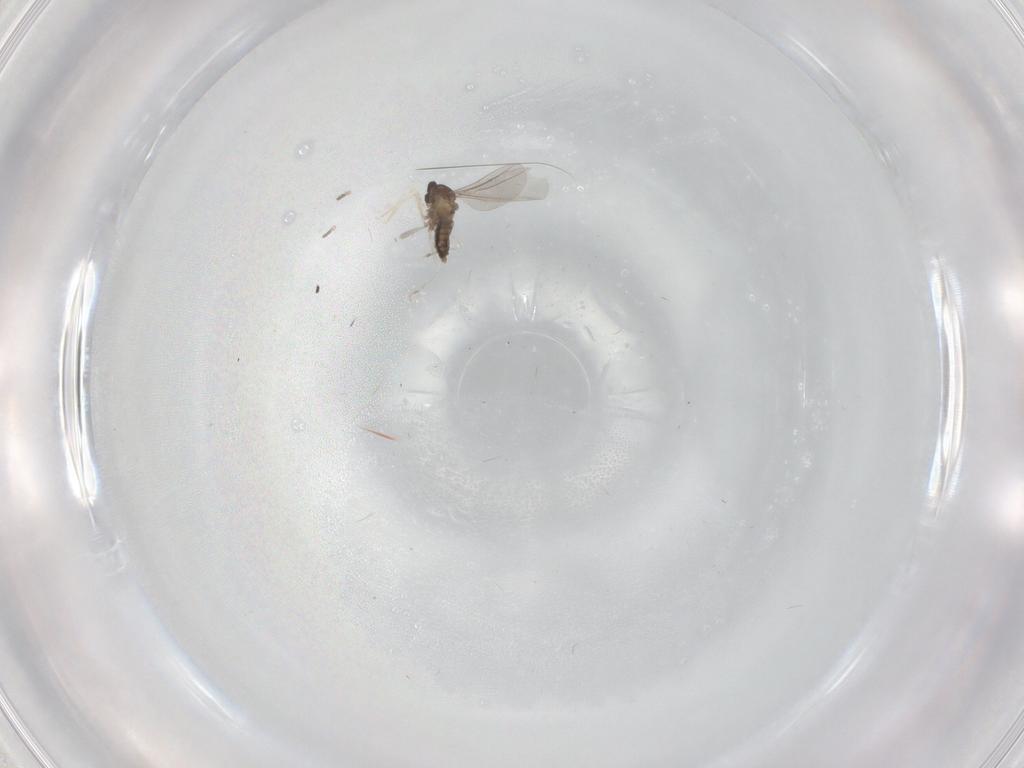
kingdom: Animalia
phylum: Arthropoda
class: Insecta
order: Diptera
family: Cecidomyiidae
